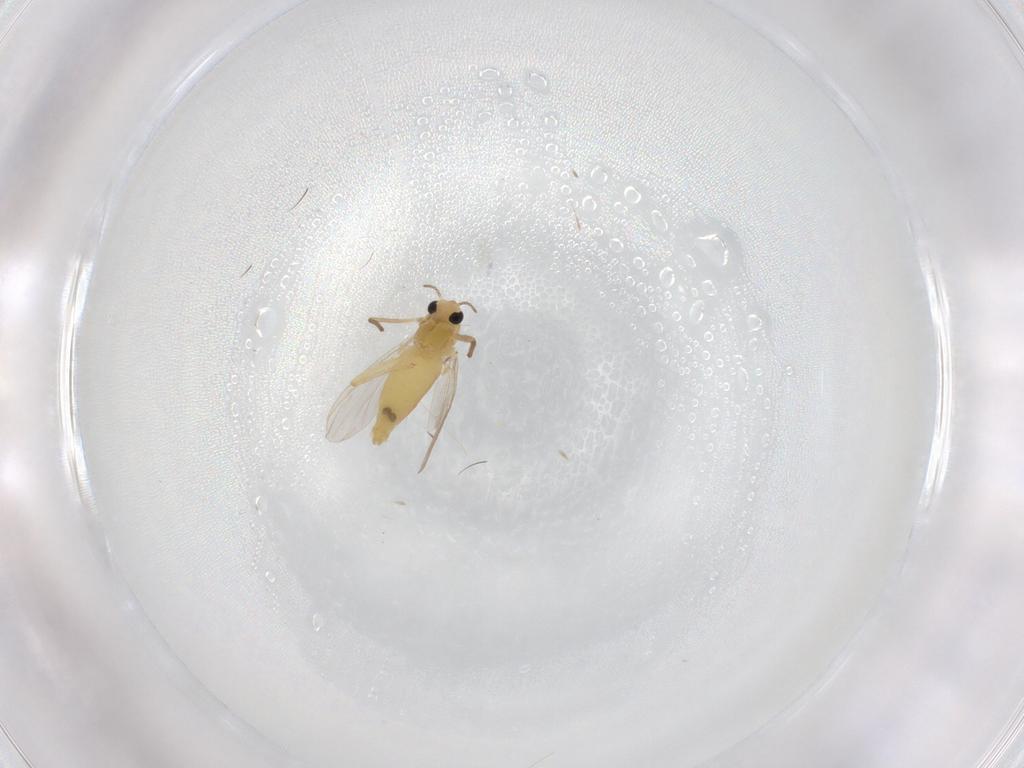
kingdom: Animalia
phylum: Arthropoda
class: Insecta
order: Diptera
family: Chironomidae
